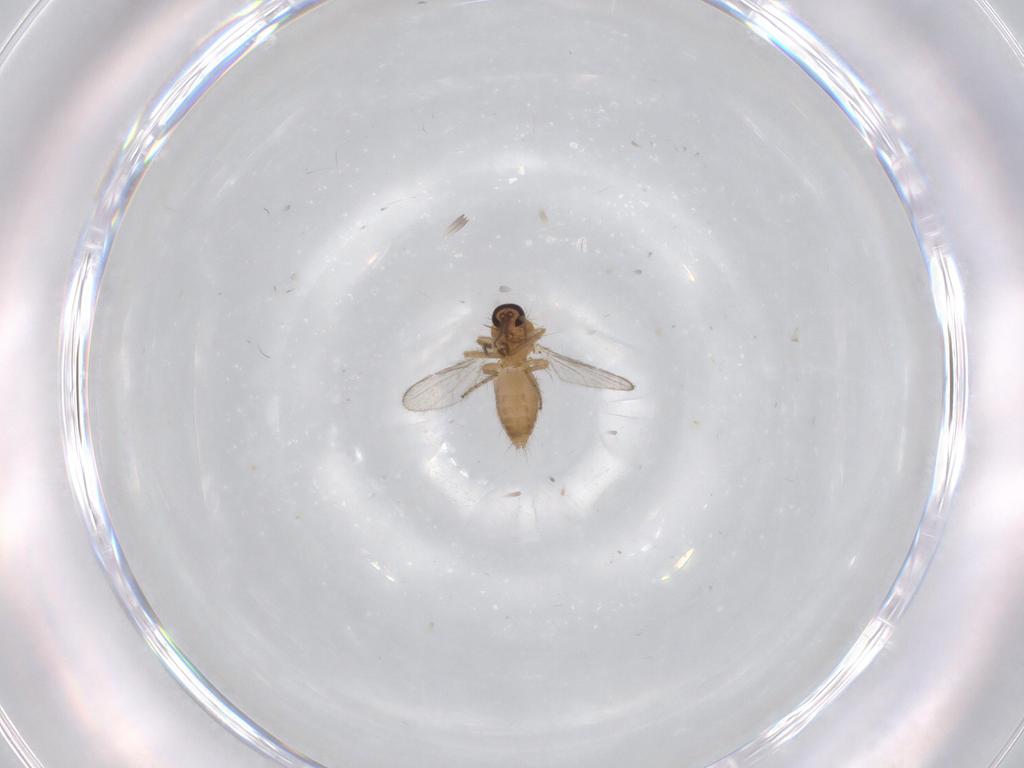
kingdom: Animalia
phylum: Arthropoda
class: Insecta
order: Diptera
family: Ceratopogonidae
